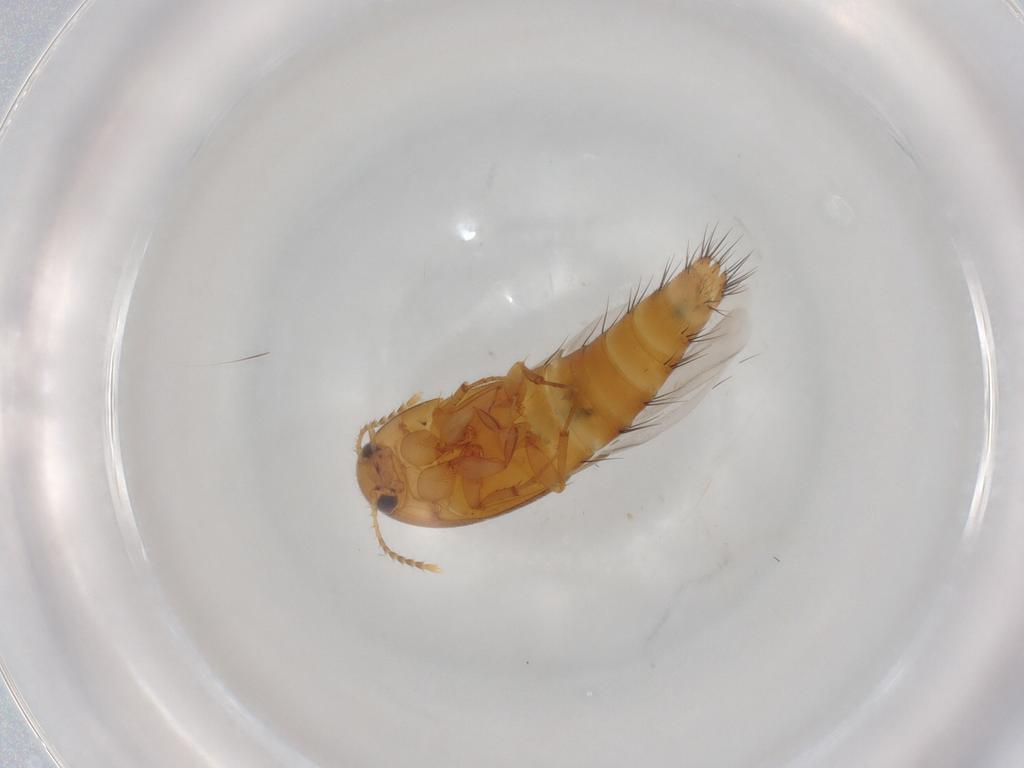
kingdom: Animalia
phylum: Arthropoda
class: Insecta
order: Coleoptera
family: Staphylinidae
